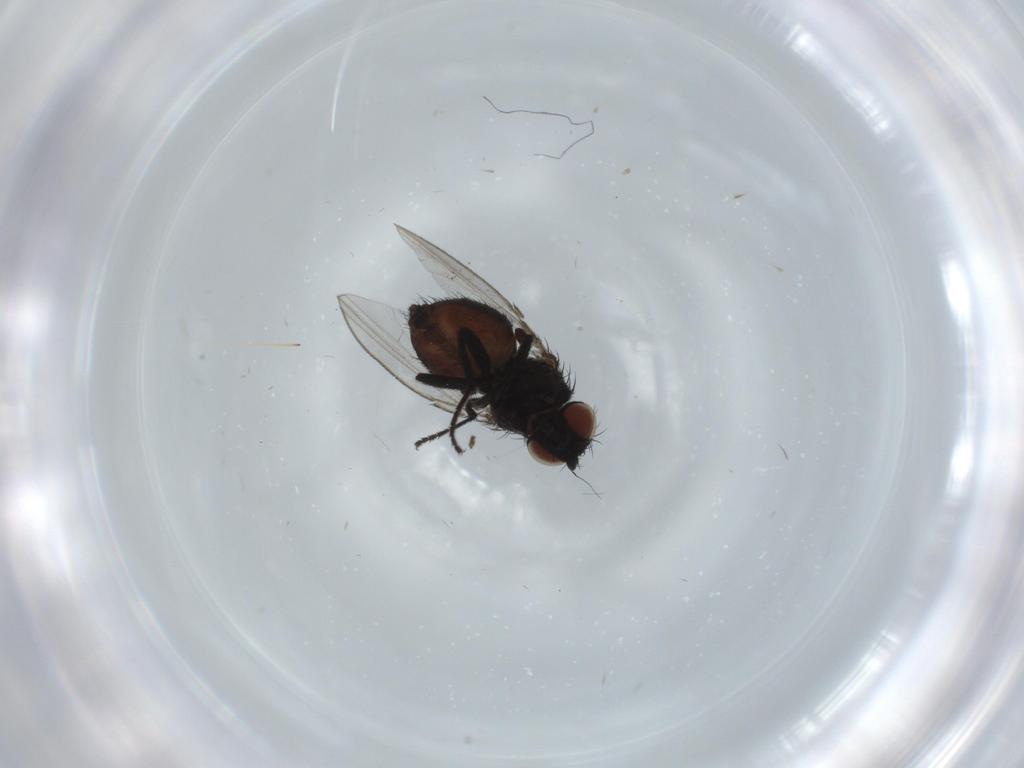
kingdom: Animalia
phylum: Arthropoda
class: Insecta
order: Diptera
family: Milichiidae
